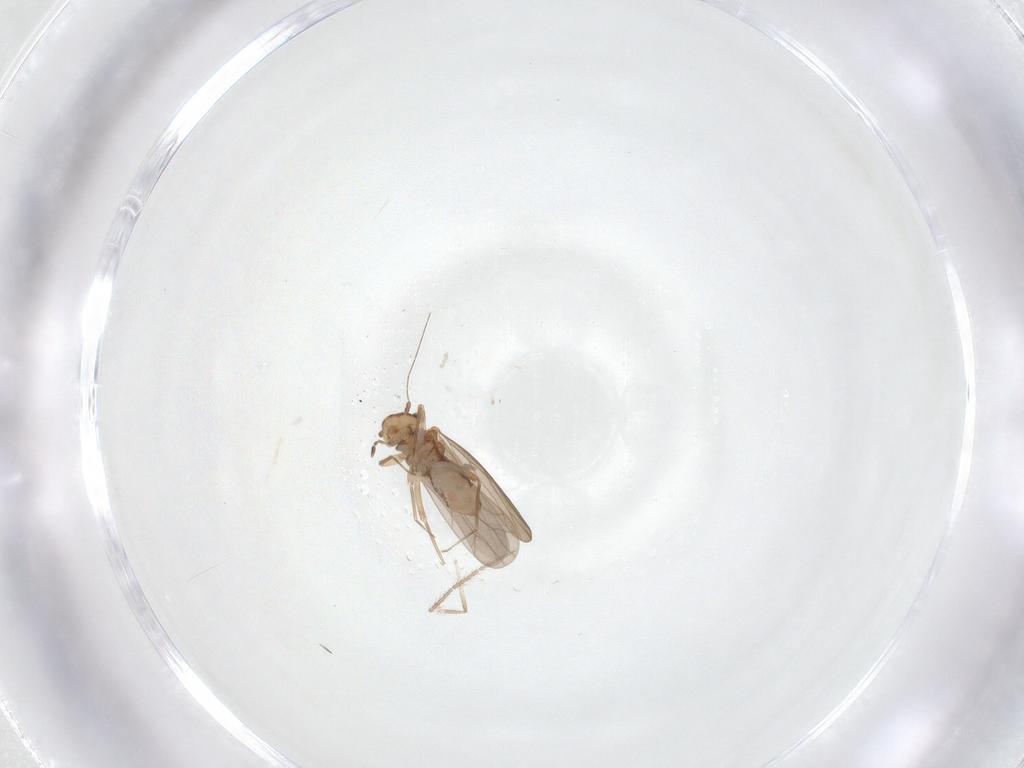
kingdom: Animalia
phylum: Arthropoda
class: Insecta
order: Psocodea
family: Amphipsocidae
